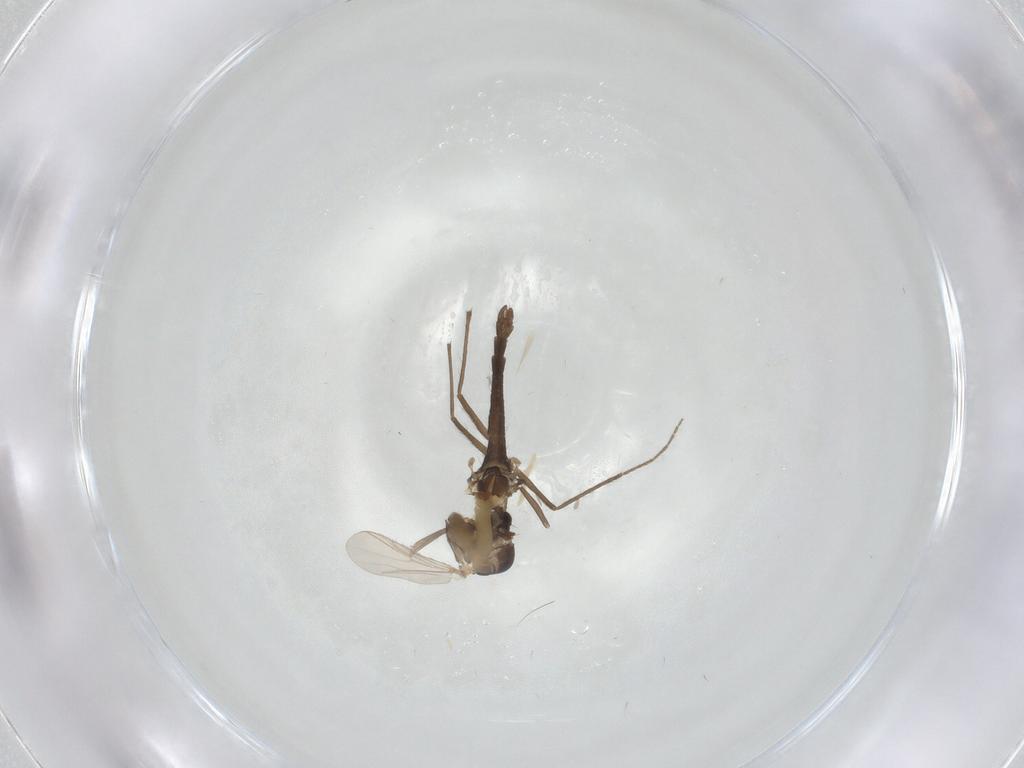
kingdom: Animalia
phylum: Arthropoda
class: Insecta
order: Diptera
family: Chironomidae
